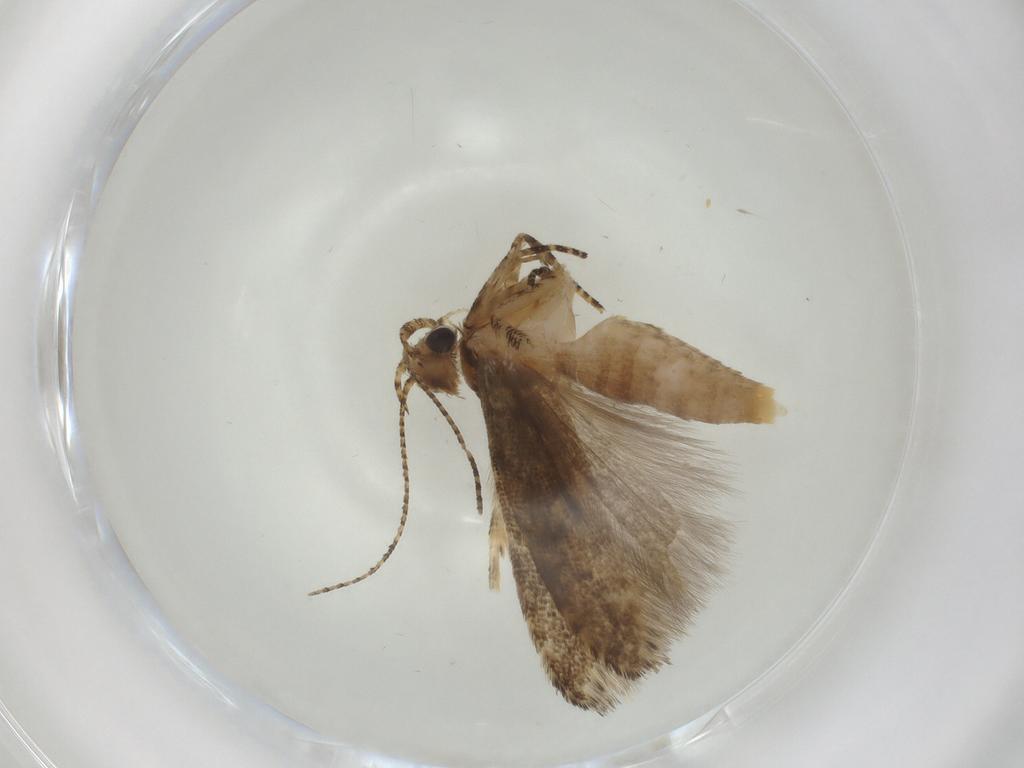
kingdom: Animalia
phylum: Arthropoda
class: Insecta
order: Lepidoptera
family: Gelechiidae
